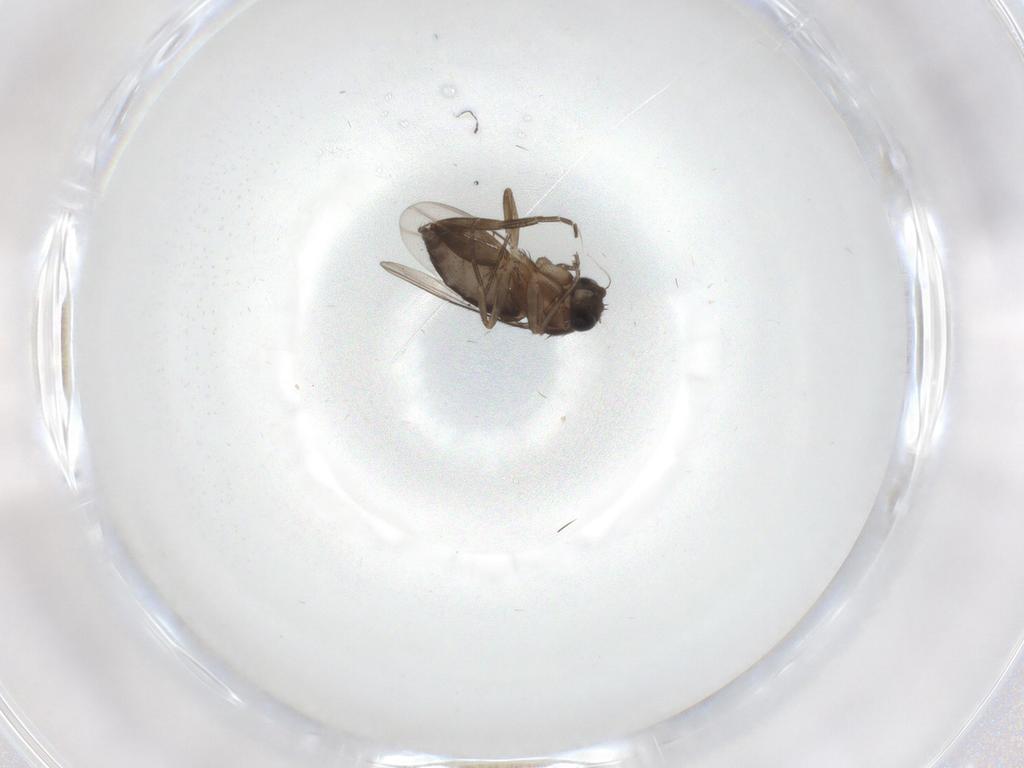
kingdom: Animalia
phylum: Arthropoda
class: Insecta
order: Diptera
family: Phoridae
